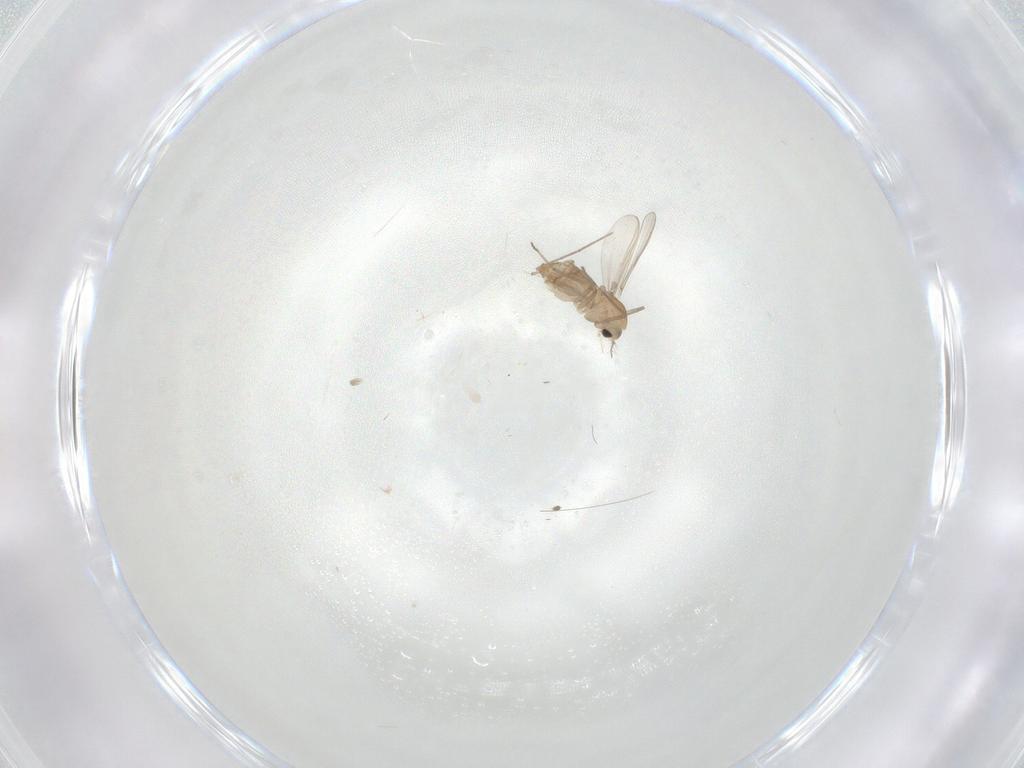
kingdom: Animalia
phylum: Arthropoda
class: Insecta
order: Diptera
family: Chironomidae
